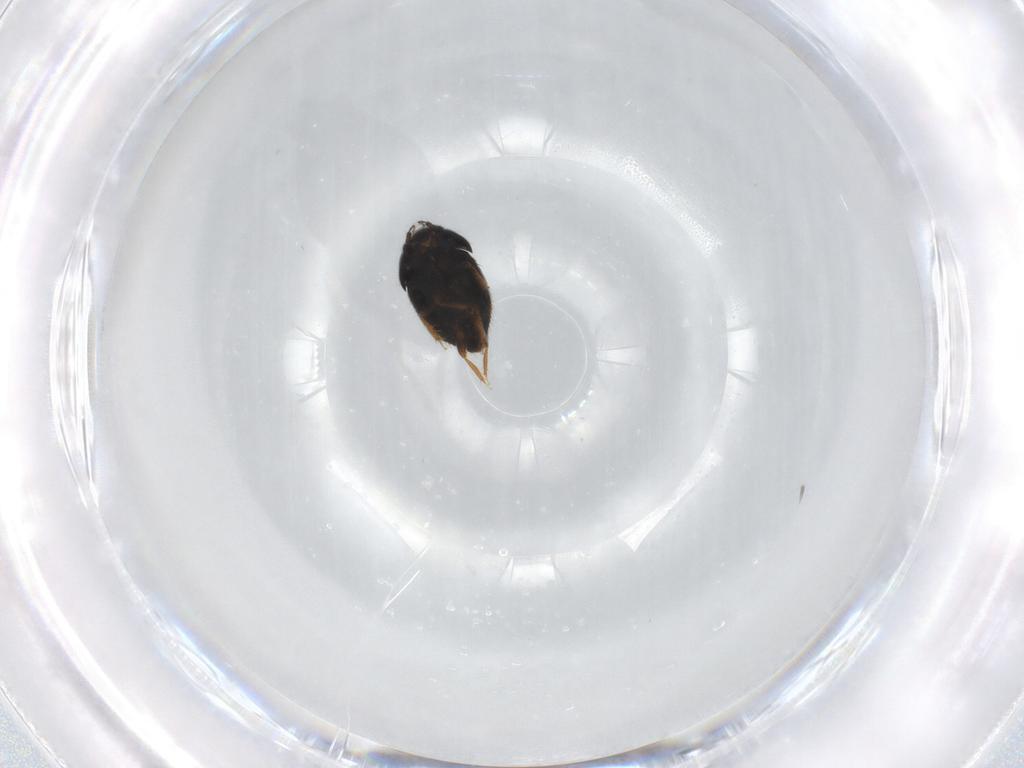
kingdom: Animalia
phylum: Arthropoda
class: Insecta
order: Coleoptera
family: Ptiliidae
